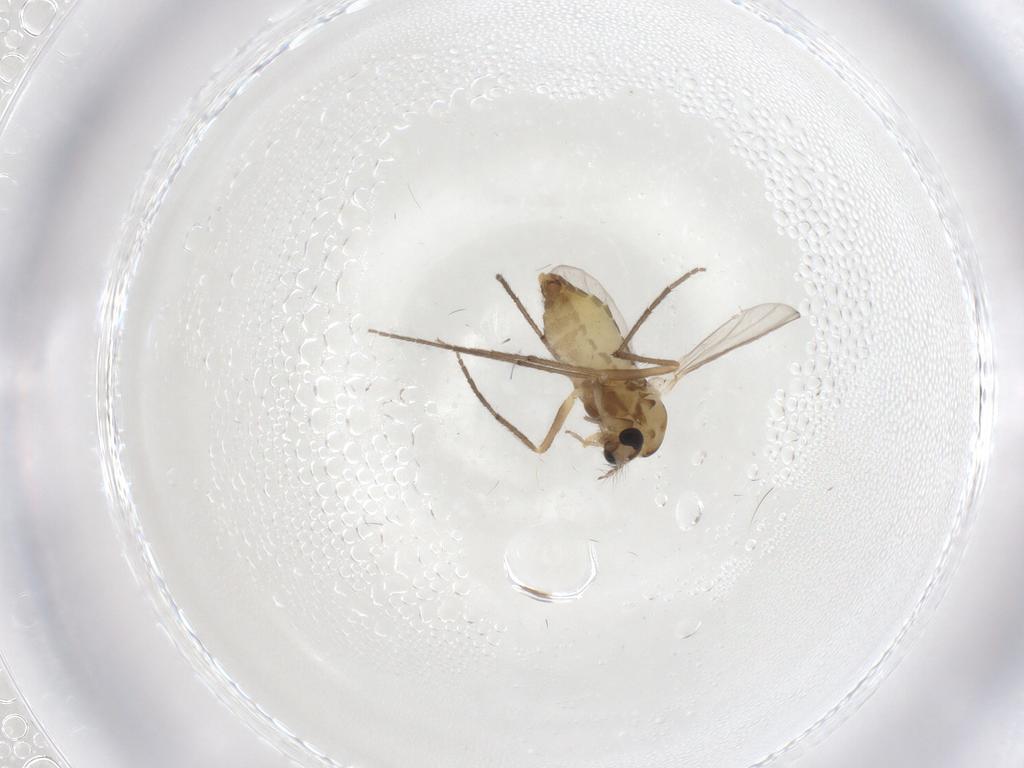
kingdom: Animalia
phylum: Arthropoda
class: Insecta
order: Diptera
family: Chironomidae
